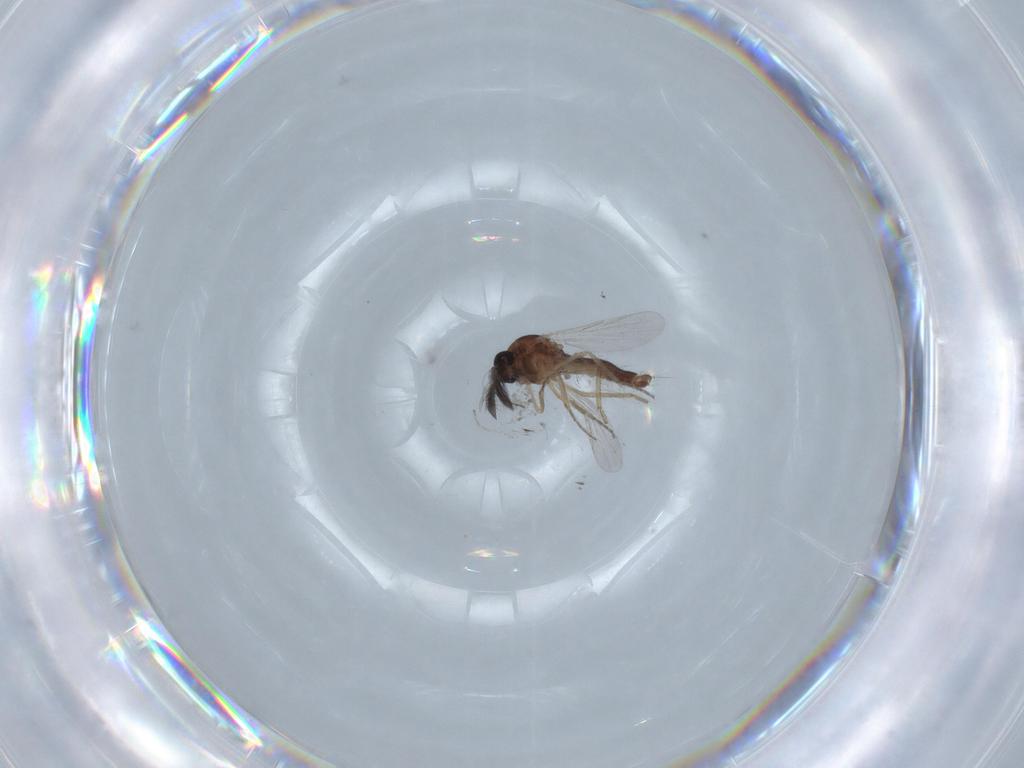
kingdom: Animalia
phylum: Arthropoda
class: Insecta
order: Diptera
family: Ceratopogonidae
